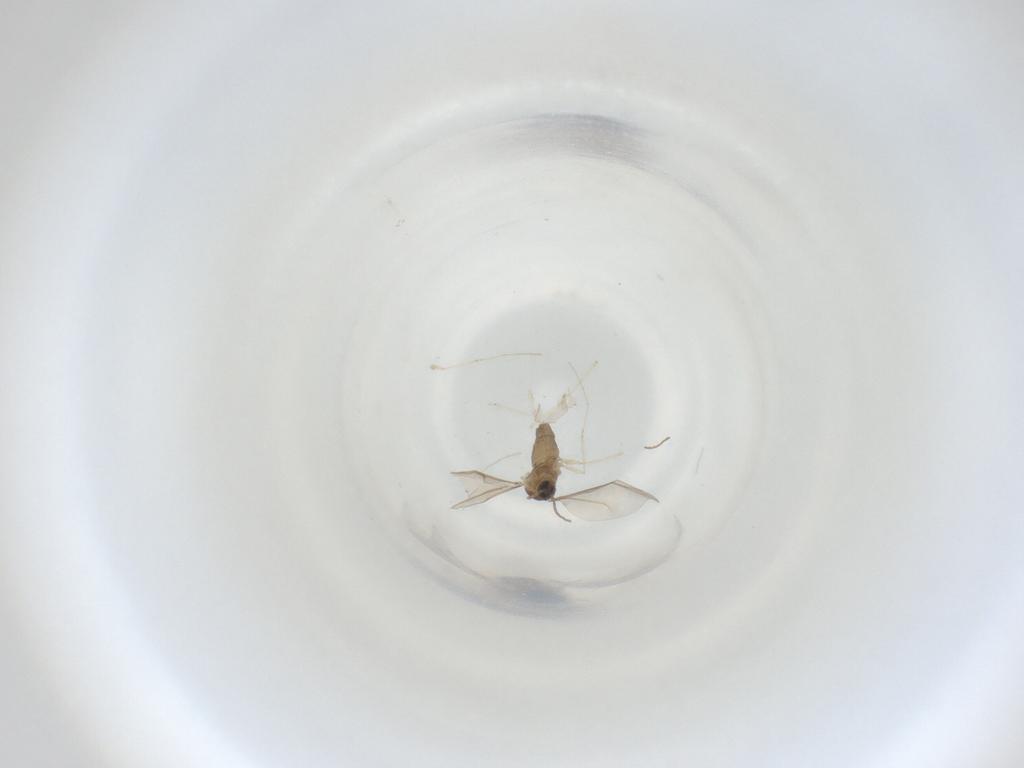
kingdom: Animalia
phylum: Arthropoda
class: Insecta
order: Diptera
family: Cecidomyiidae
